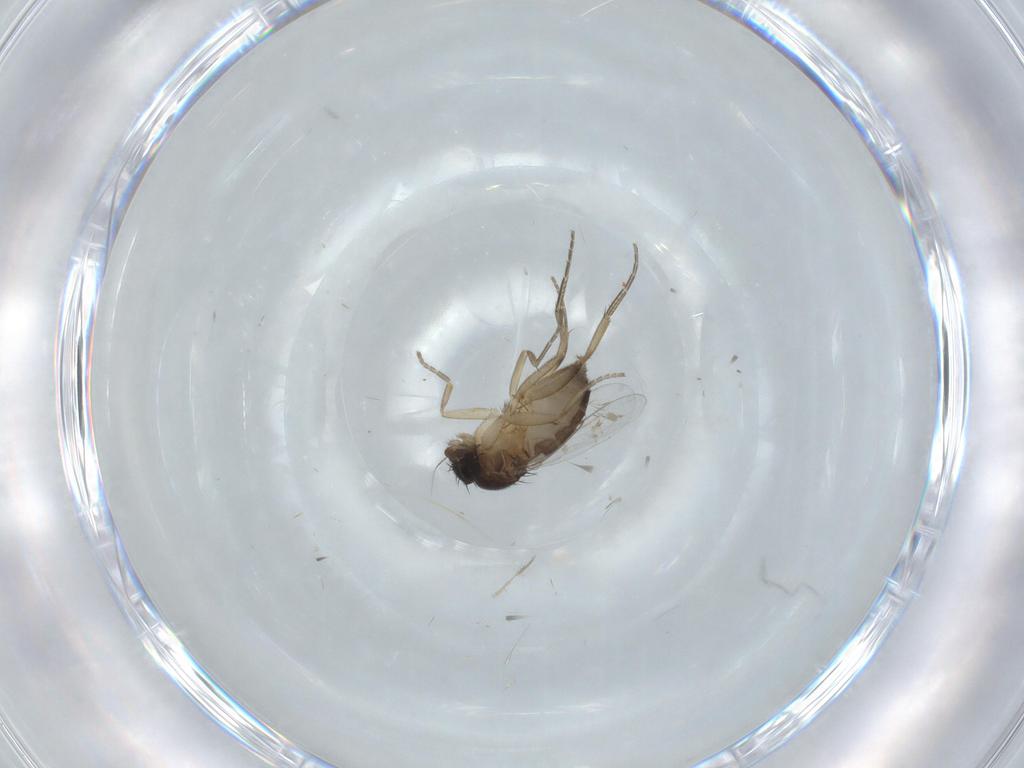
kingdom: Animalia
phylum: Arthropoda
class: Insecta
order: Diptera
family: Phoridae
